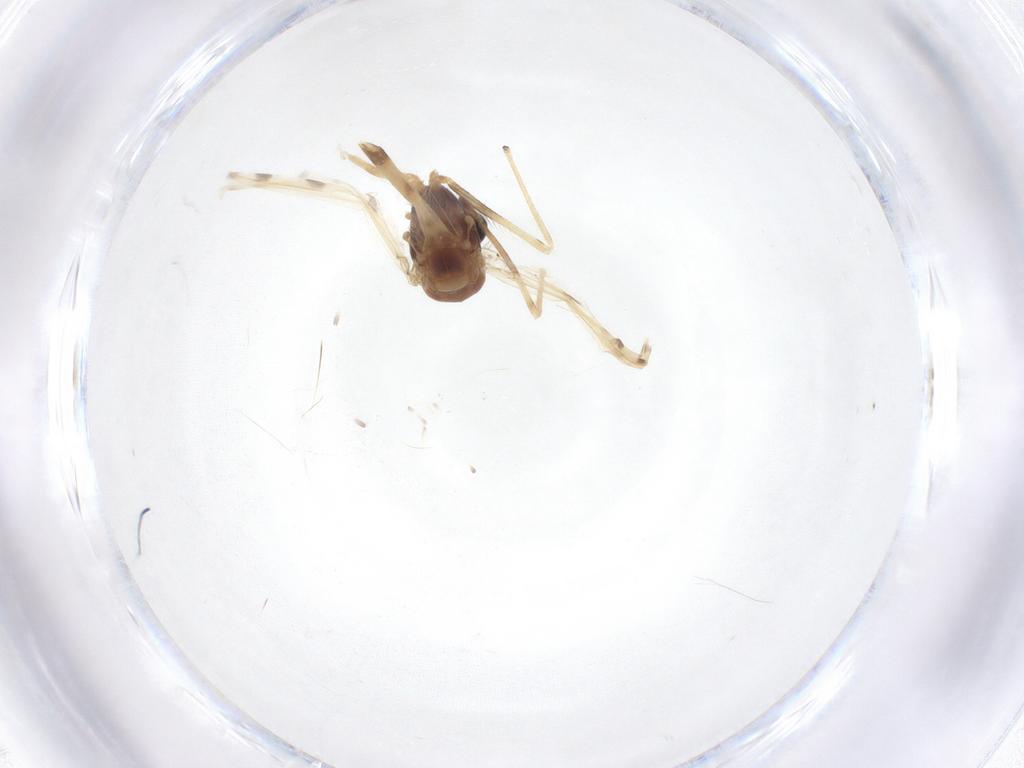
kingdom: Animalia
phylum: Arthropoda
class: Insecta
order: Diptera
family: Chironomidae
